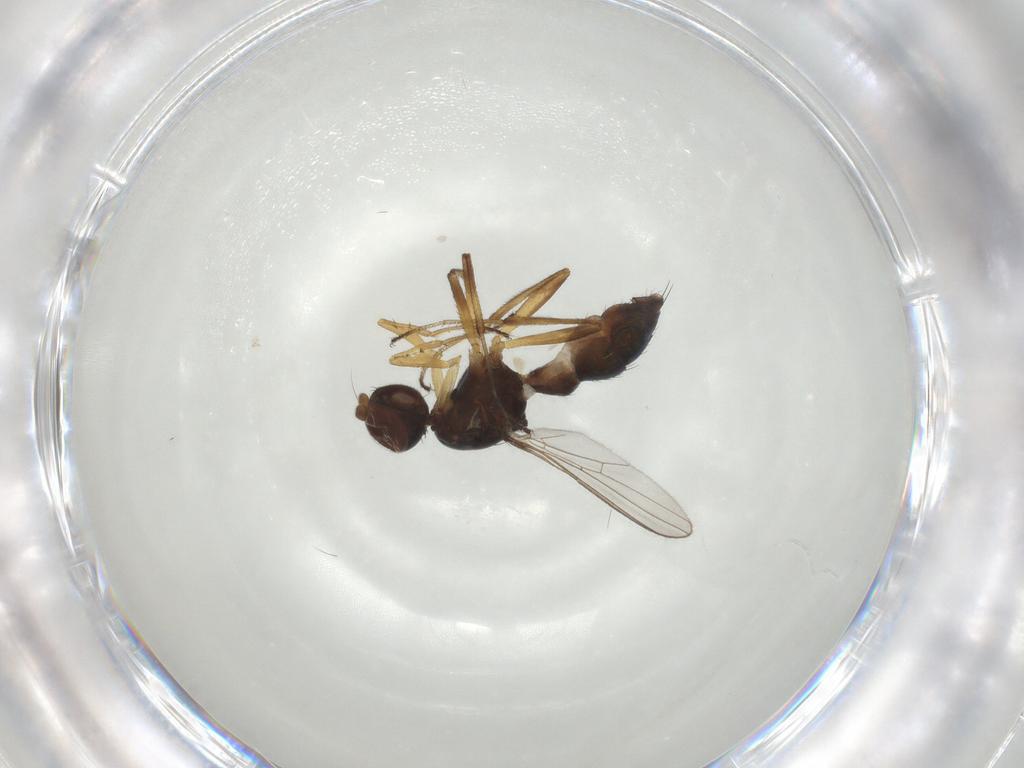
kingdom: Animalia
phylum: Arthropoda
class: Insecta
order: Diptera
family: Sepsidae
